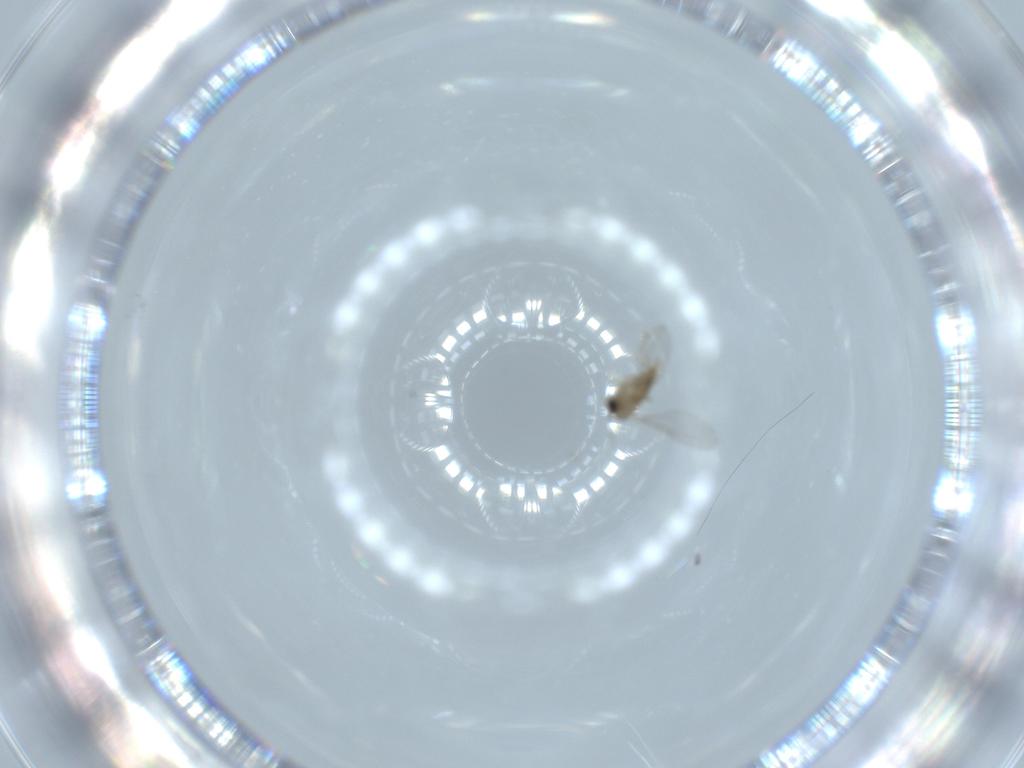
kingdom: Animalia
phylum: Arthropoda
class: Insecta
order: Diptera
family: Cecidomyiidae
